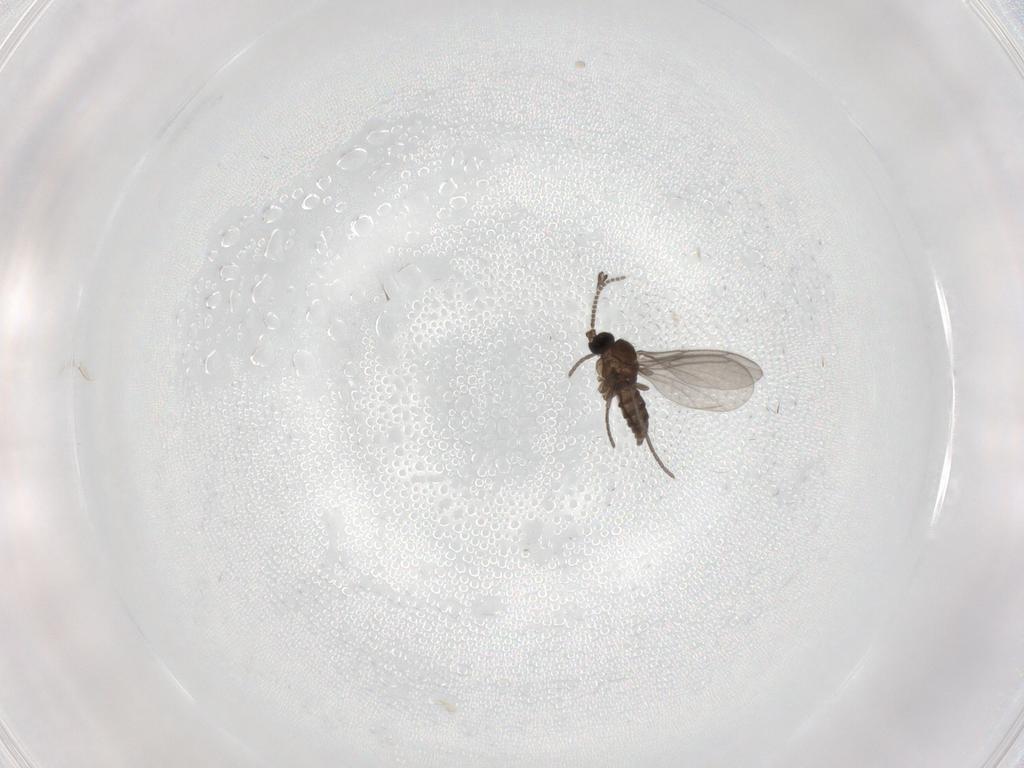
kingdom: Animalia
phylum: Arthropoda
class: Insecta
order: Diptera
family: Sciaridae
